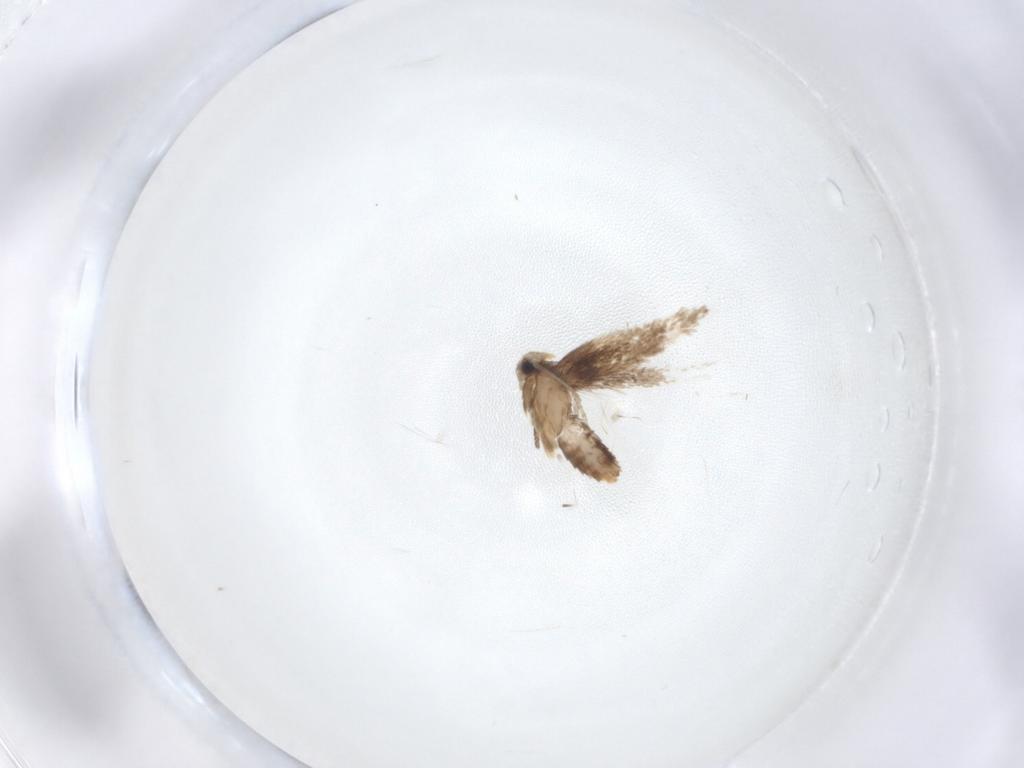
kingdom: Animalia
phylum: Arthropoda
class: Insecta
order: Lepidoptera
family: Nepticulidae
